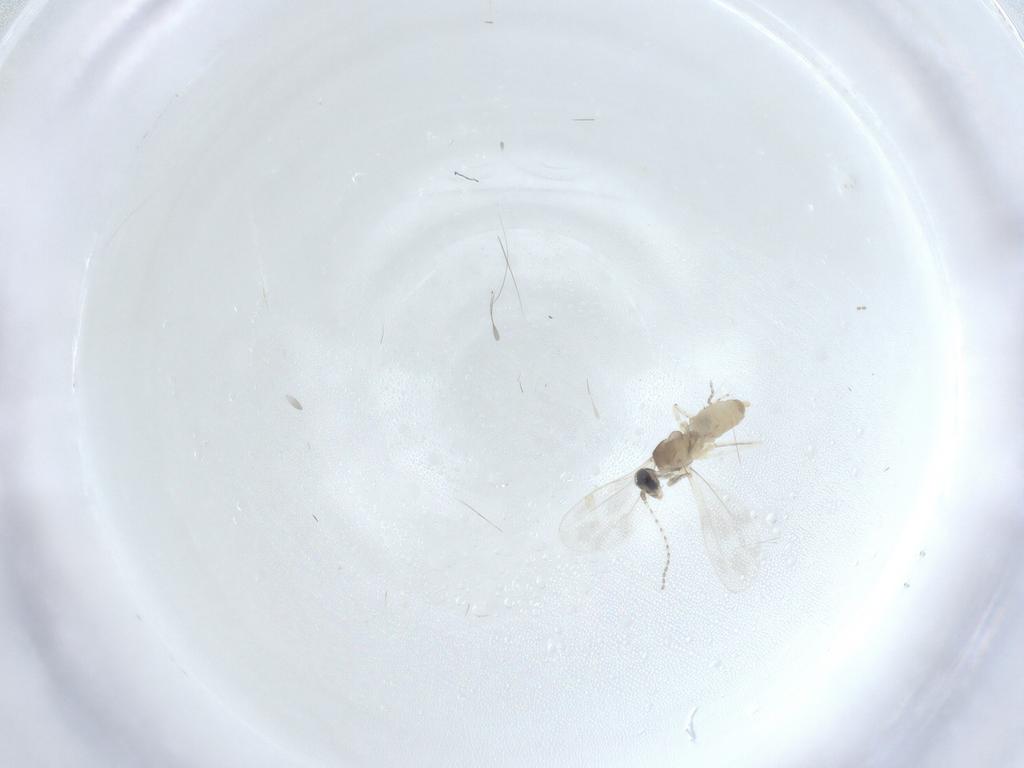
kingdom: Animalia
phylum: Arthropoda
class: Insecta
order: Diptera
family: Cecidomyiidae
